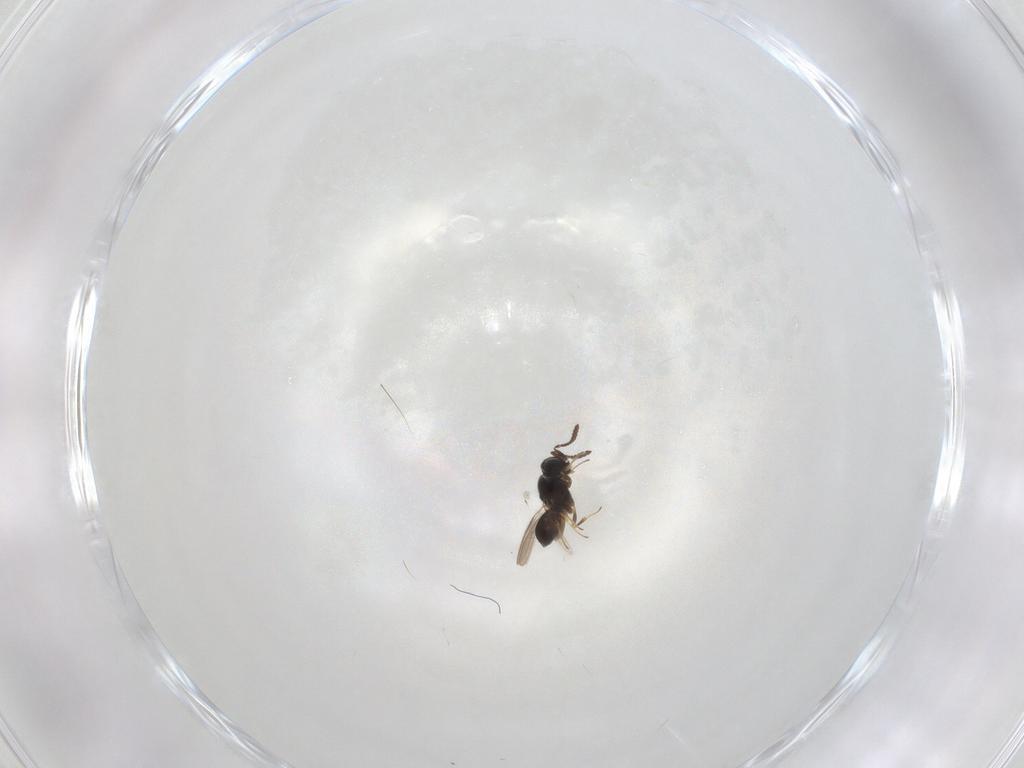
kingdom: Animalia
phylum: Arthropoda
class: Insecta
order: Hymenoptera
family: Scelionidae
